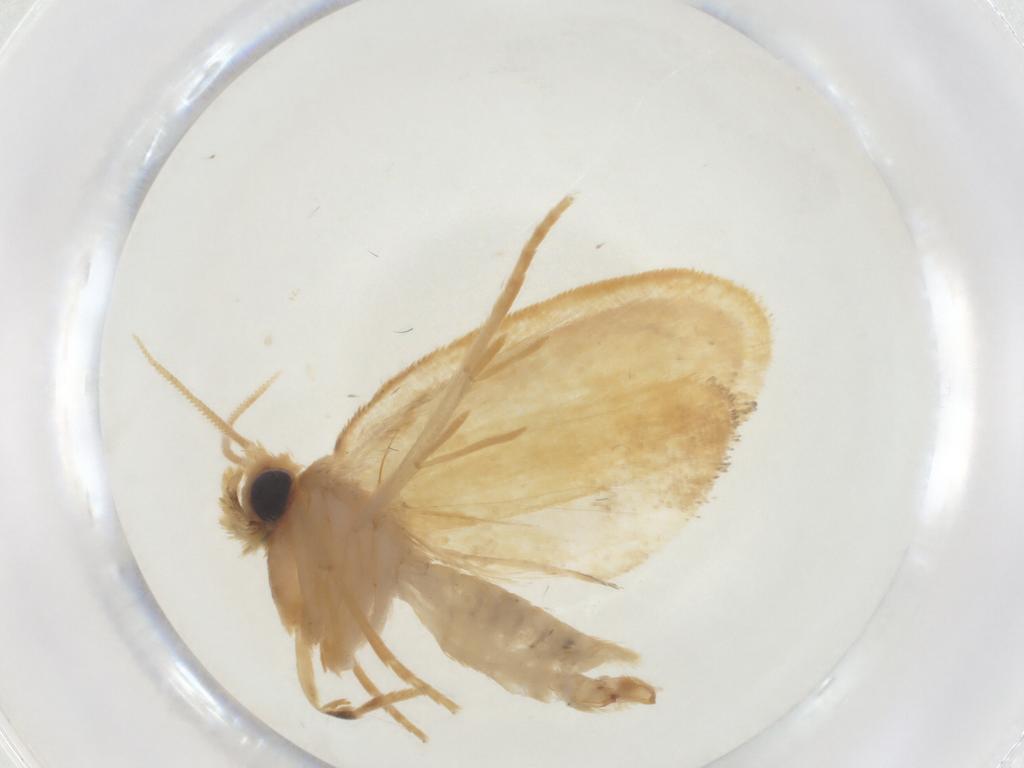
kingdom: Animalia
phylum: Arthropoda
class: Insecta
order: Lepidoptera
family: Psychidae
